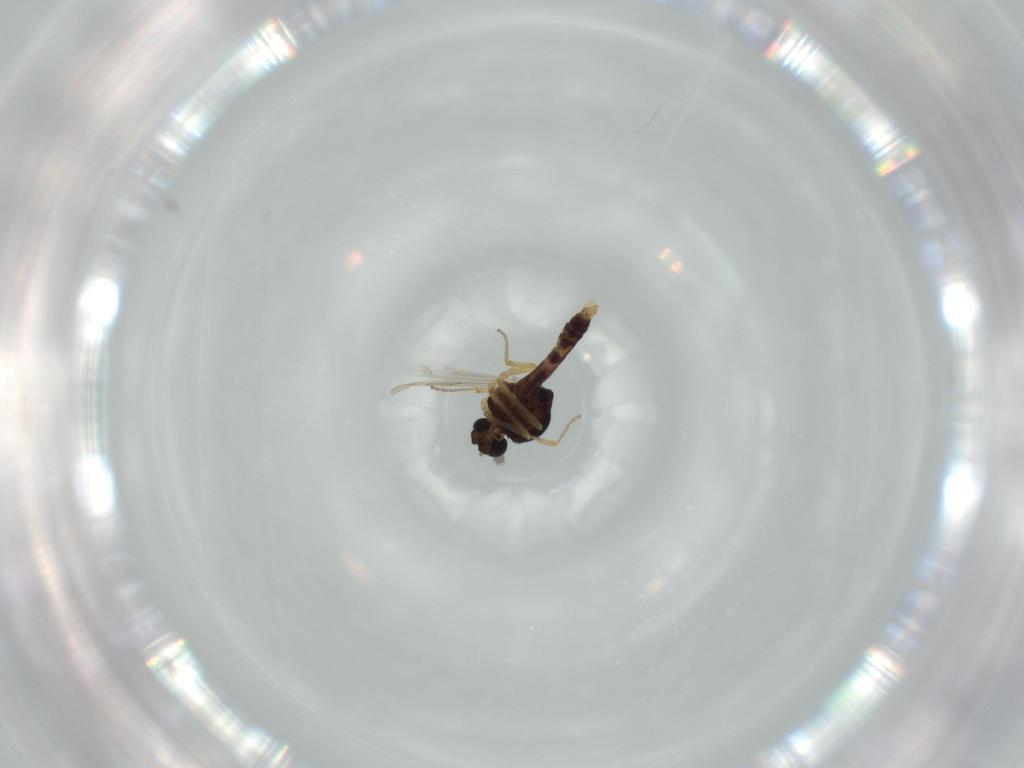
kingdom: Animalia
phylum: Arthropoda
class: Insecta
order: Diptera
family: Ceratopogonidae
